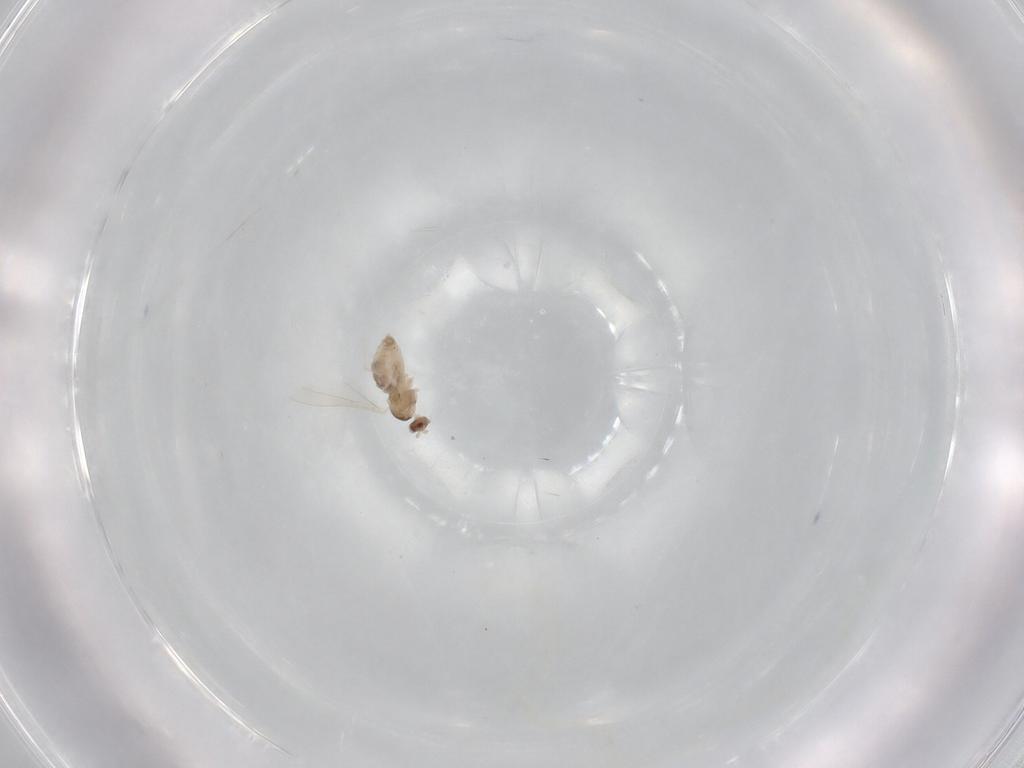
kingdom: Animalia
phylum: Arthropoda
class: Insecta
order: Diptera
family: Cecidomyiidae
